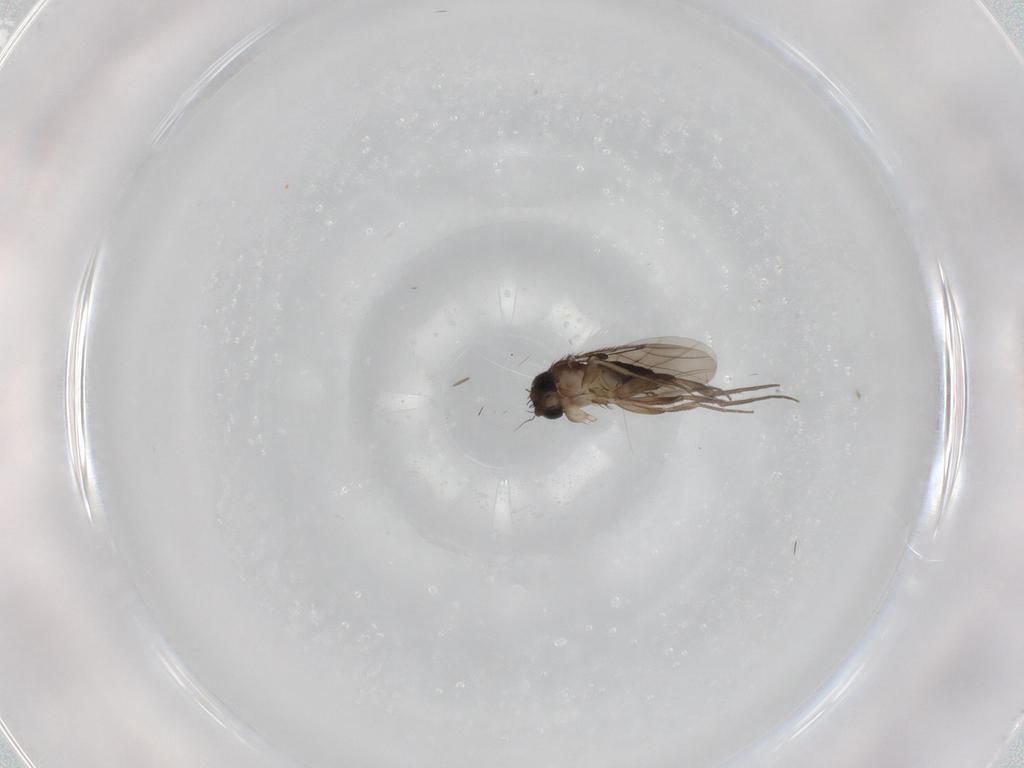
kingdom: Animalia
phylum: Arthropoda
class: Insecta
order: Diptera
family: Phoridae
